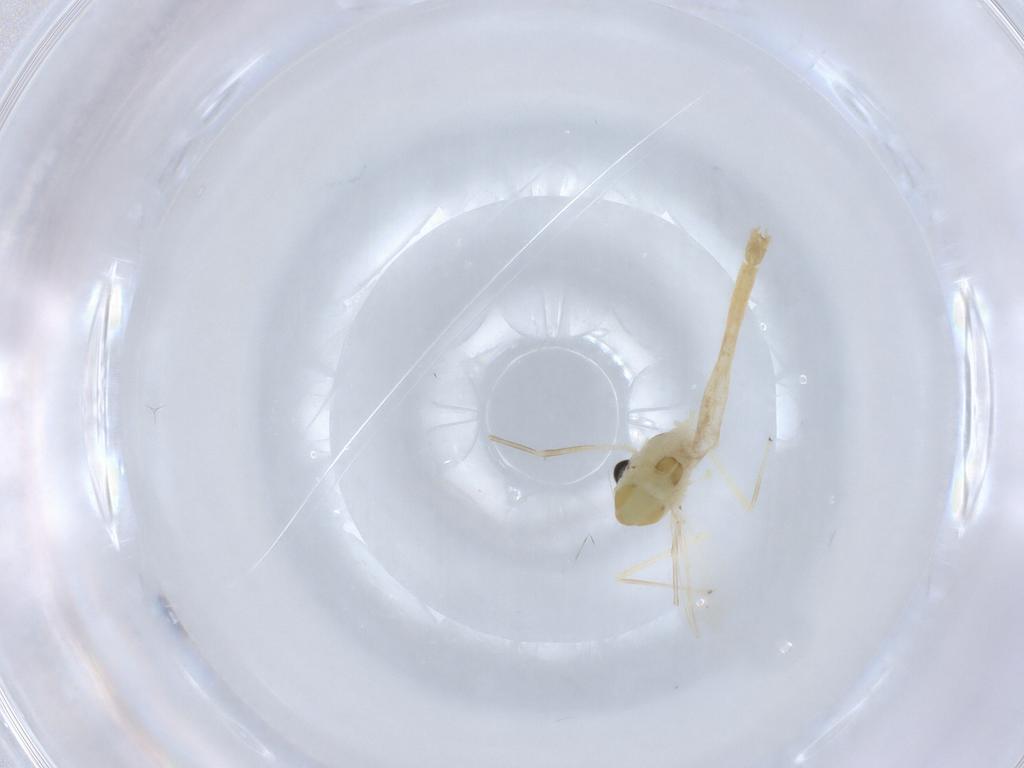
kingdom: Animalia
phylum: Arthropoda
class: Insecta
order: Diptera
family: Chironomidae
